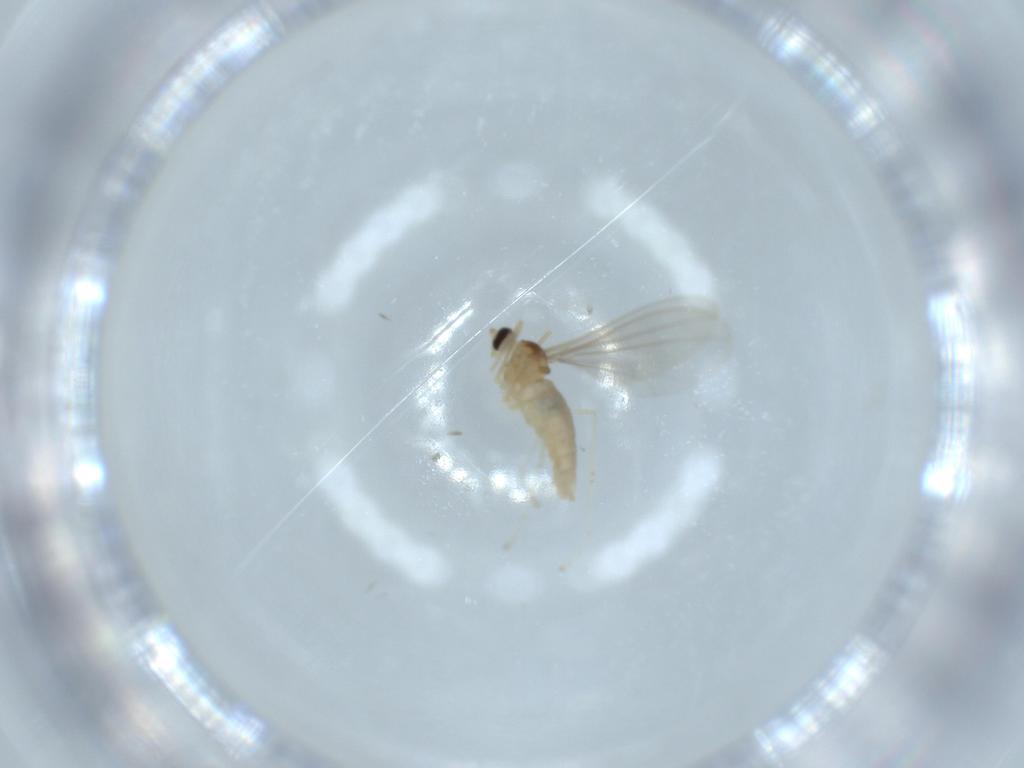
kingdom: Animalia
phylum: Arthropoda
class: Insecta
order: Diptera
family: Cecidomyiidae
